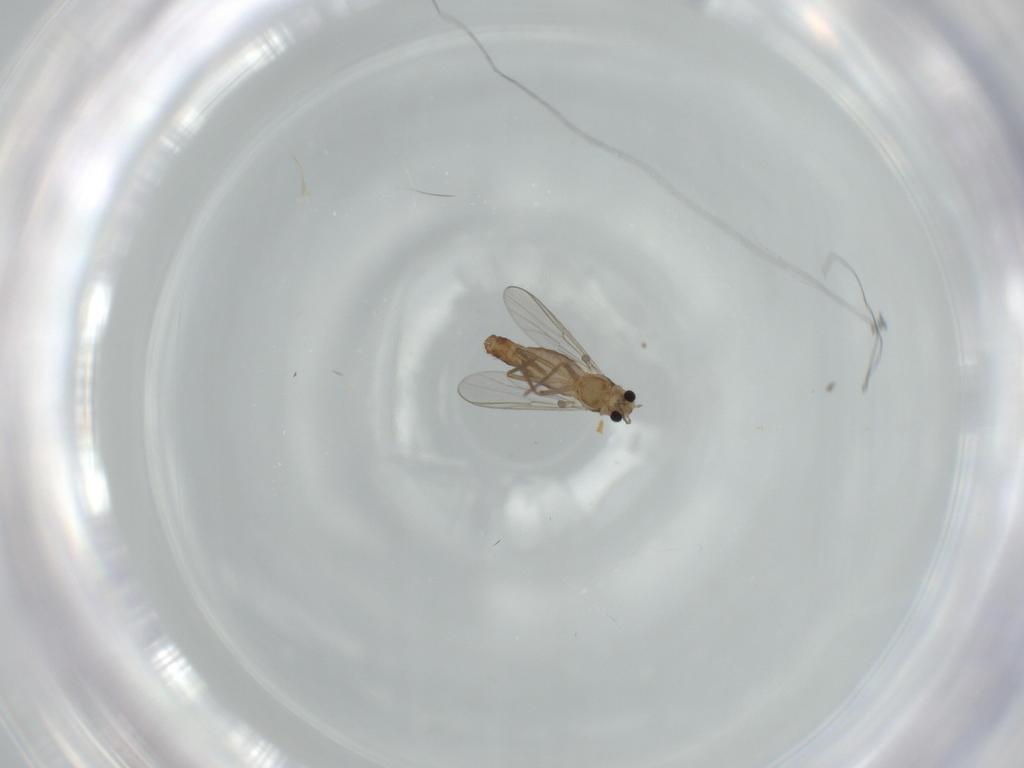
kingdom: Animalia
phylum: Arthropoda
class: Insecta
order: Diptera
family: Chironomidae
